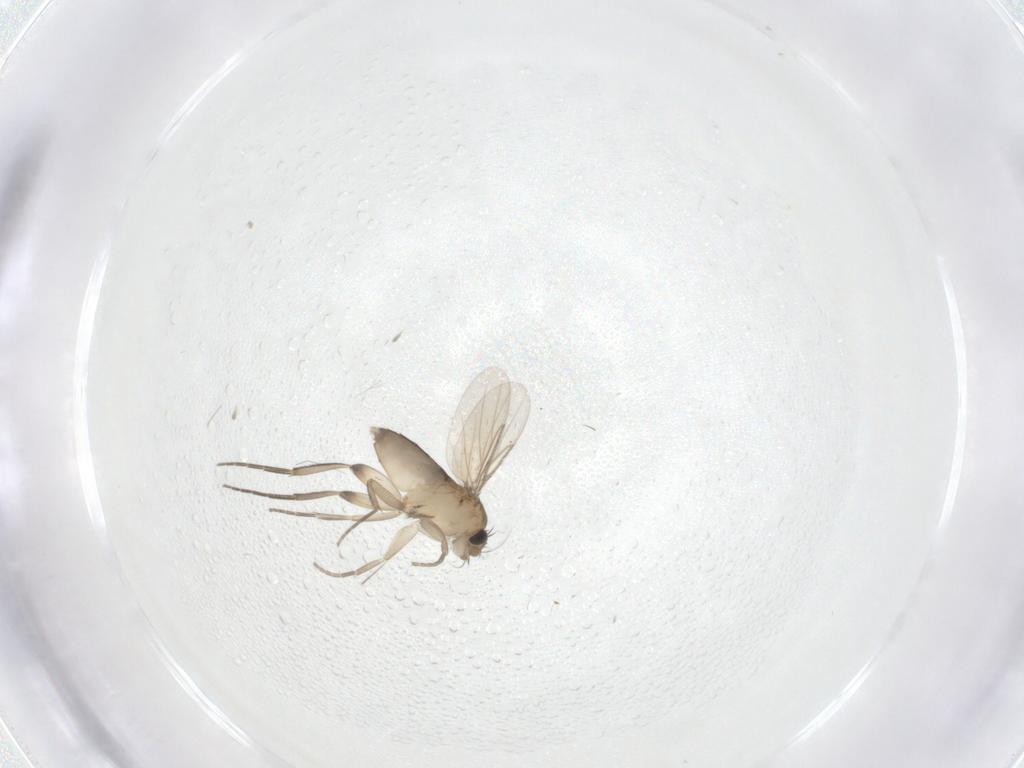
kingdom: Animalia
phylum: Arthropoda
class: Insecta
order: Diptera
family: Phoridae
